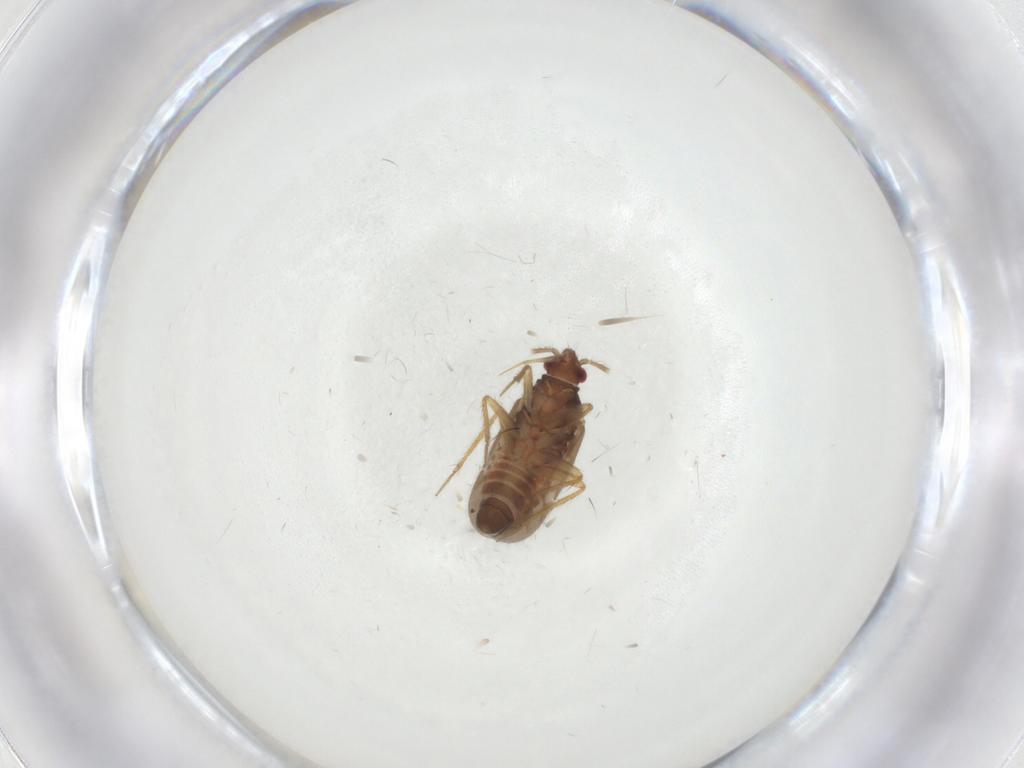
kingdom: Animalia
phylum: Arthropoda
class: Insecta
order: Hemiptera
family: Ceratocombidae
